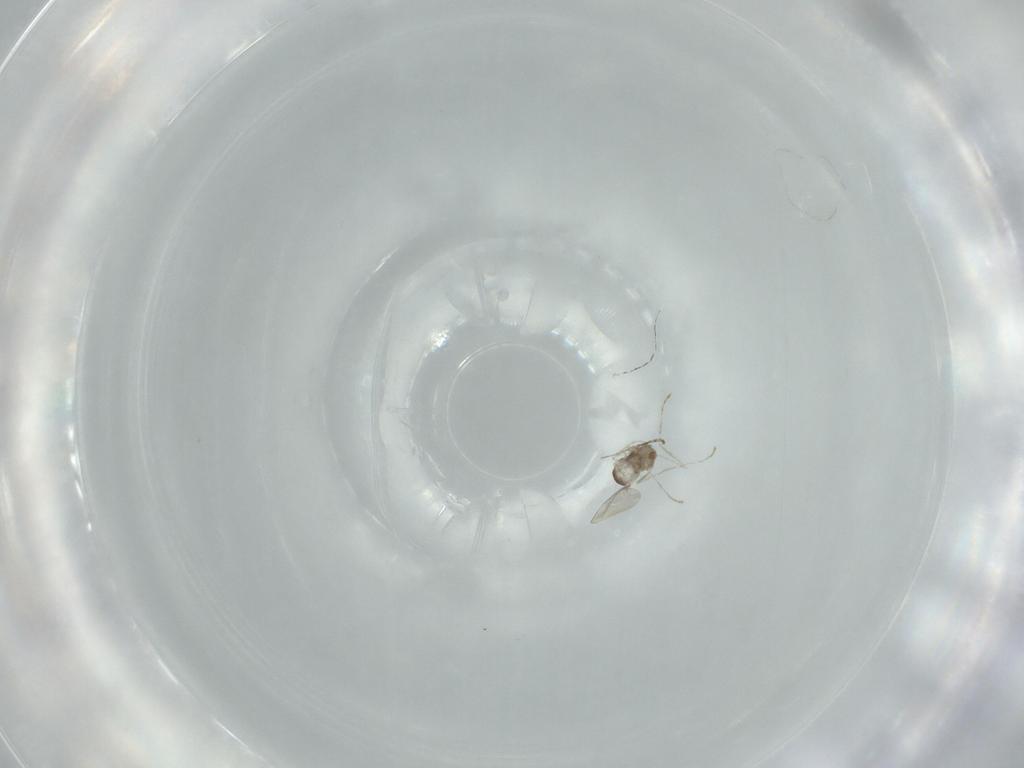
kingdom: Animalia
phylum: Arthropoda
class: Insecta
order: Diptera
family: Cecidomyiidae
